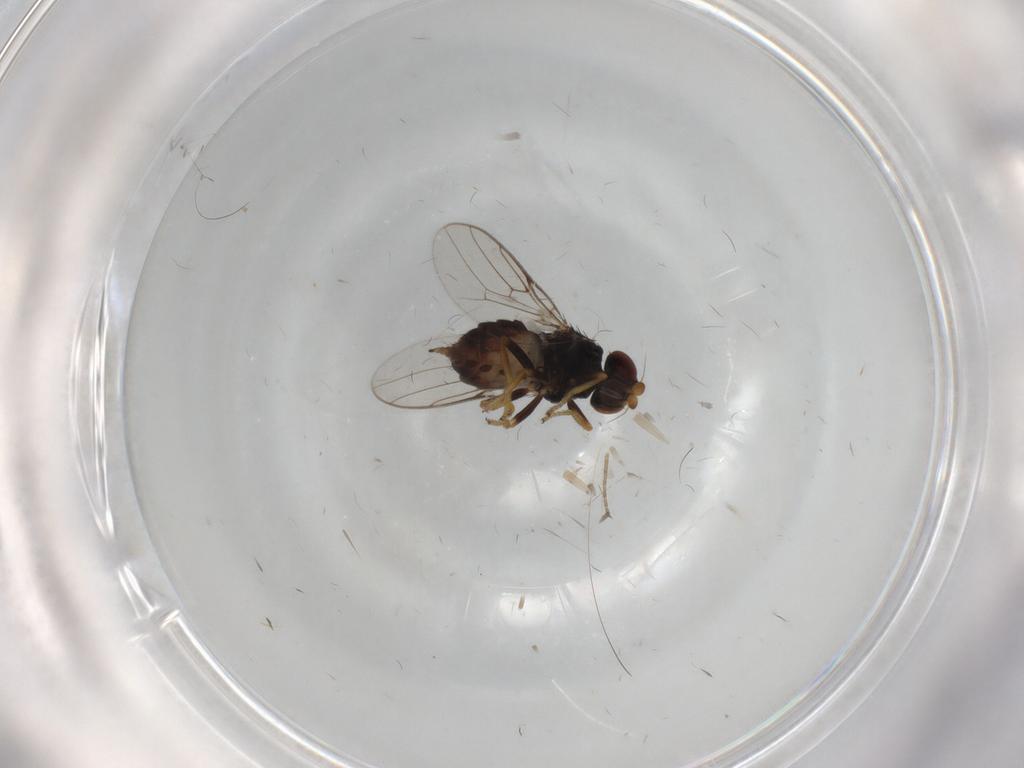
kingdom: Animalia
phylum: Arthropoda
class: Insecta
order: Diptera
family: Chloropidae
